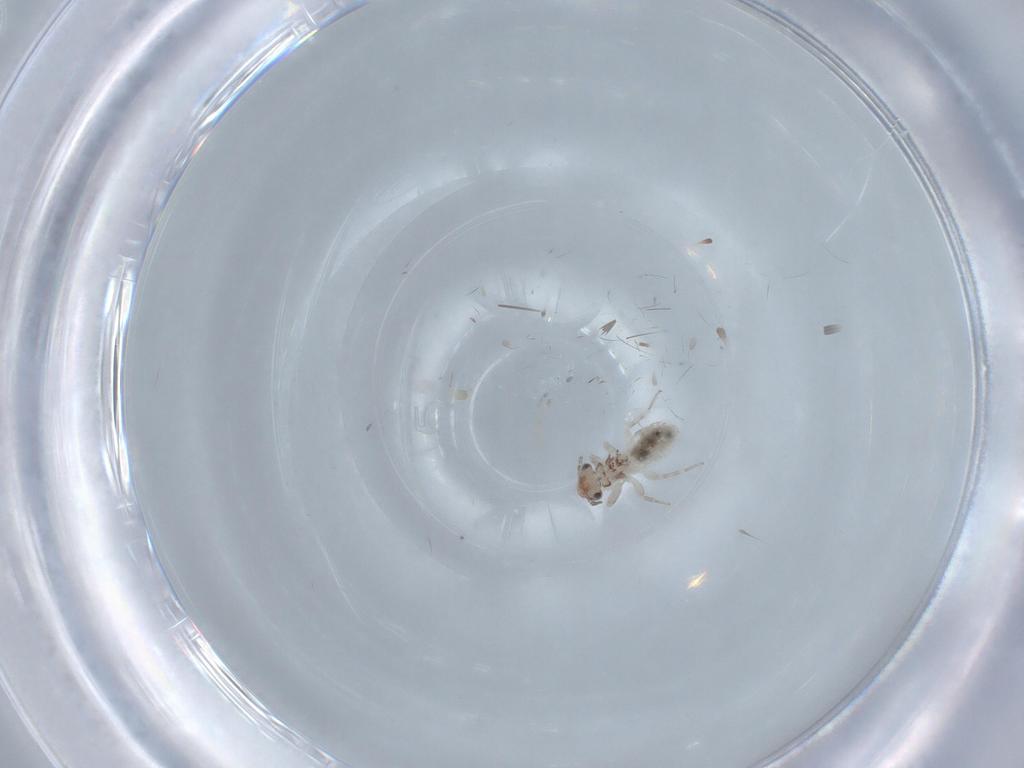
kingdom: Animalia
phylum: Arthropoda
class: Insecta
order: Psocodea
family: Lepidopsocidae
